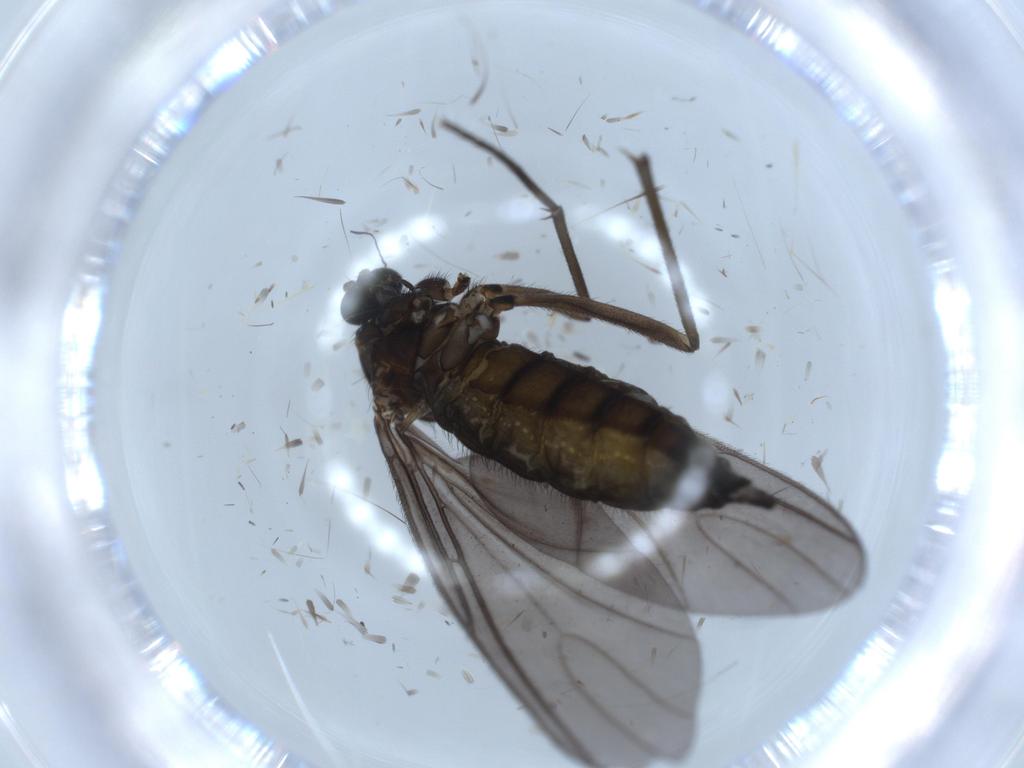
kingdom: Animalia
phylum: Arthropoda
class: Insecta
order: Diptera
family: Sciaridae
